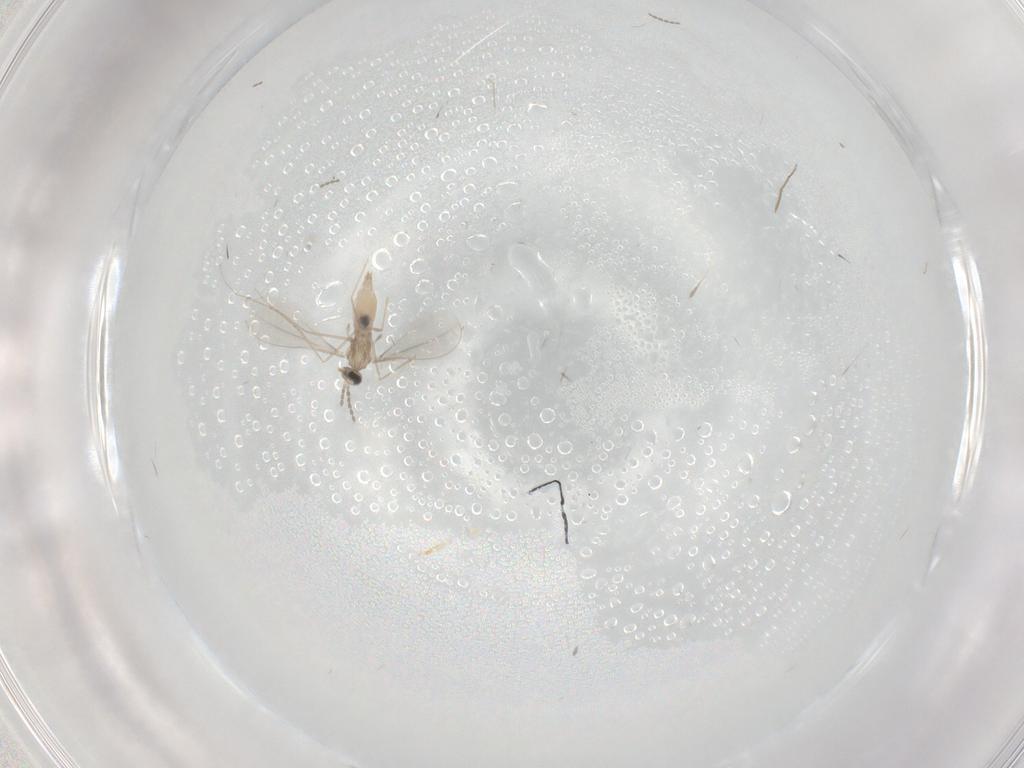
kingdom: Animalia
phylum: Arthropoda
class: Insecta
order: Diptera
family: Cecidomyiidae
